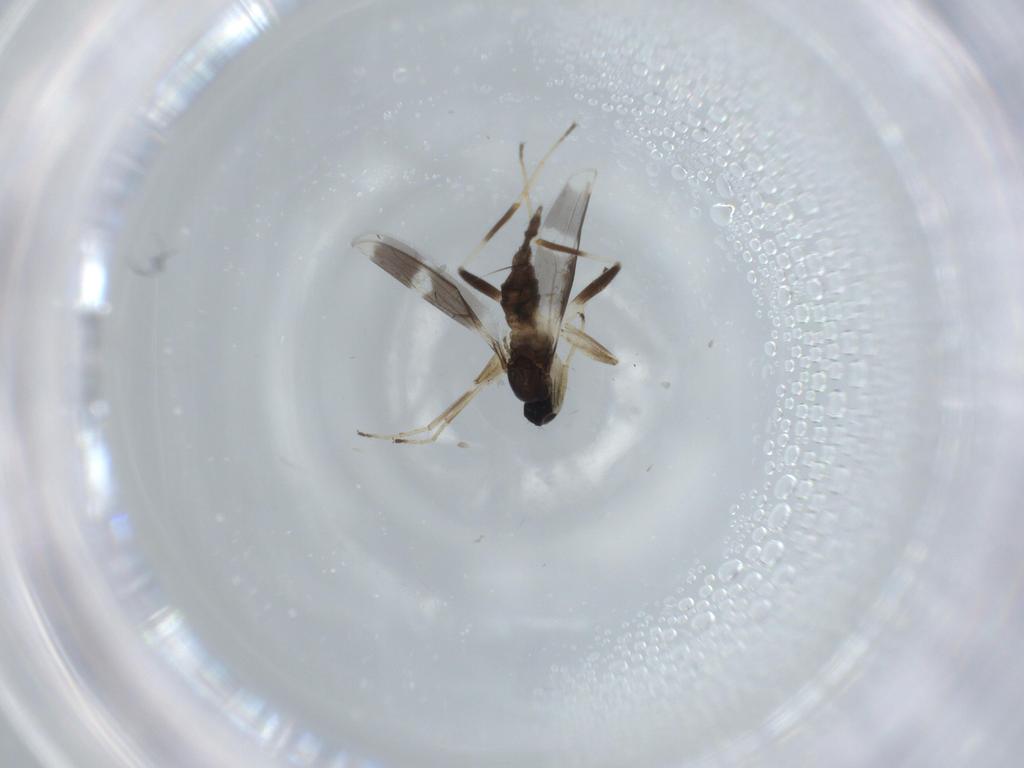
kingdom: Animalia
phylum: Arthropoda
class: Insecta
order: Diptera
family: Hybotidae
